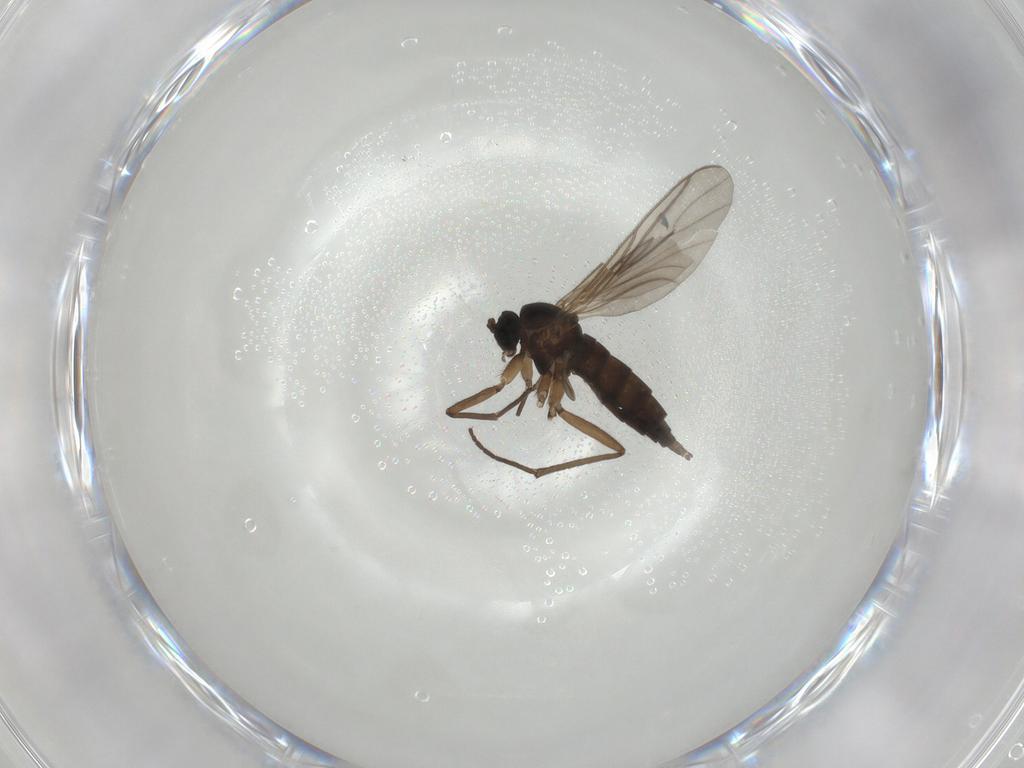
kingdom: Animalia
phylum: Arthropoda
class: Insecta
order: Diptera
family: Sciaridae
